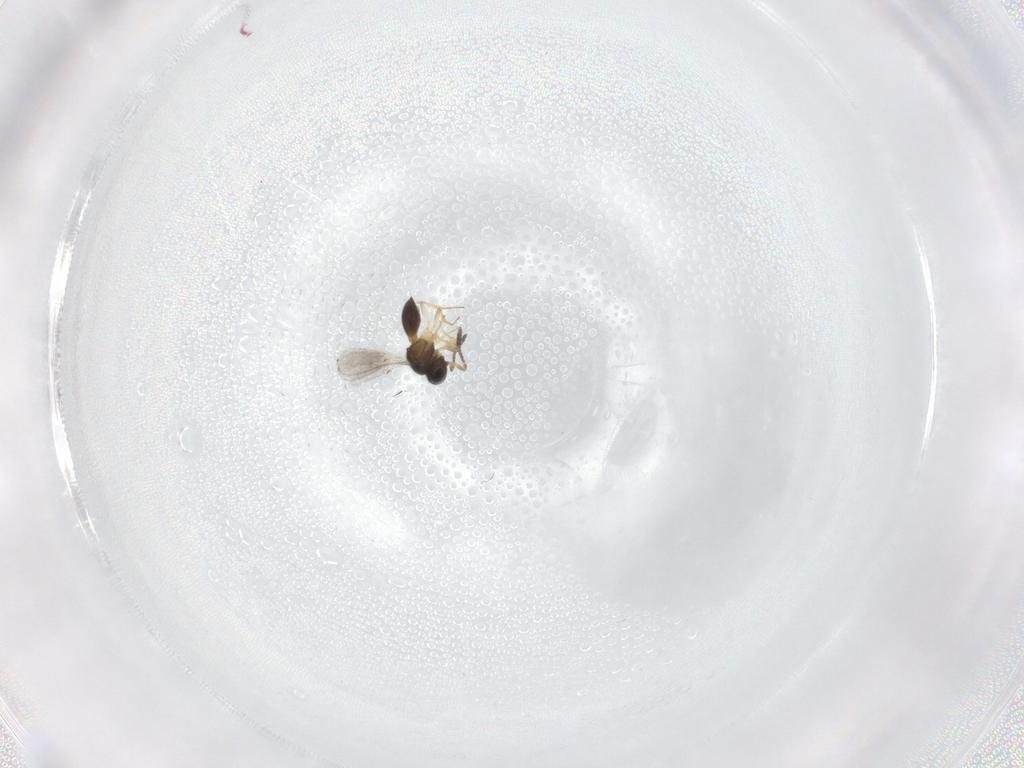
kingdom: Animalia
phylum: Arthropoda
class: Insecta
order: Hymenoptera
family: Scelionidae
